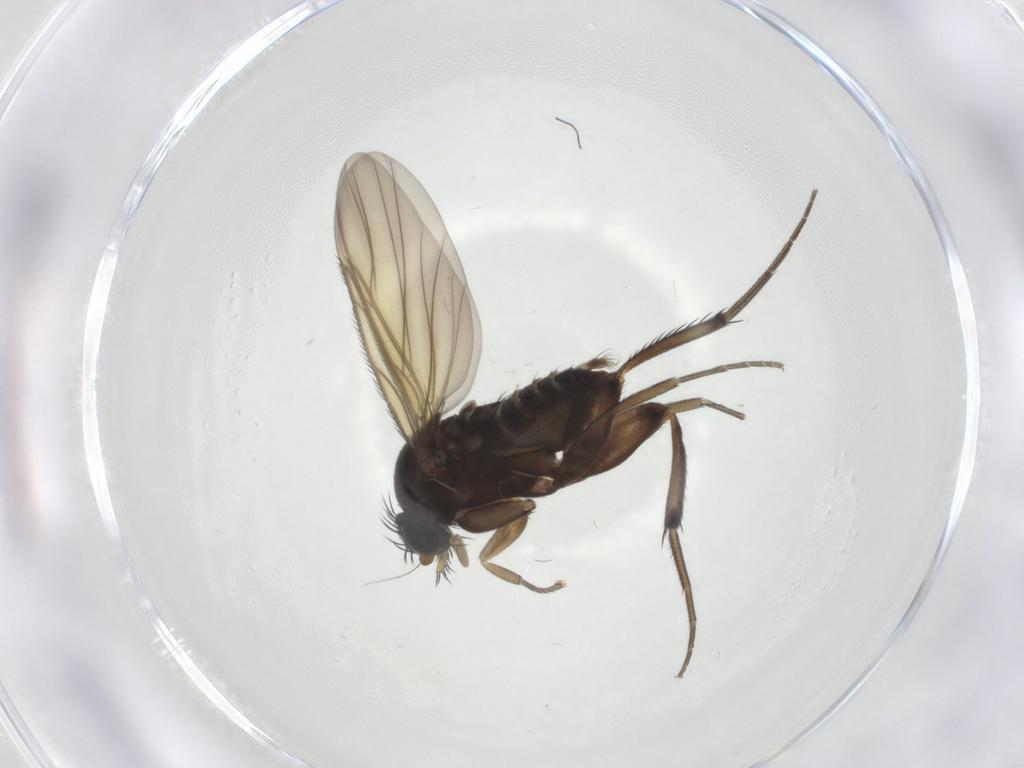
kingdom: Animalia
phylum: Arthropoda
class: Insecta
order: Diptera
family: Phoridae
